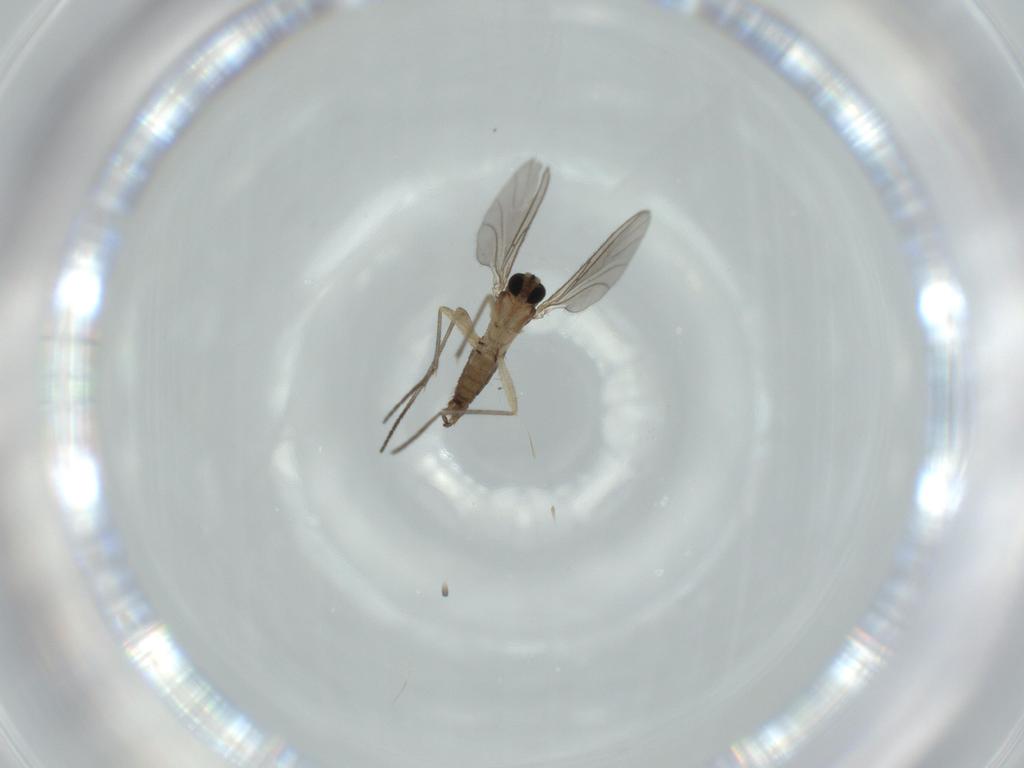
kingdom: Animalia
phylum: Arthropoda
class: Insecta
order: Diptera
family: Sciaridae
